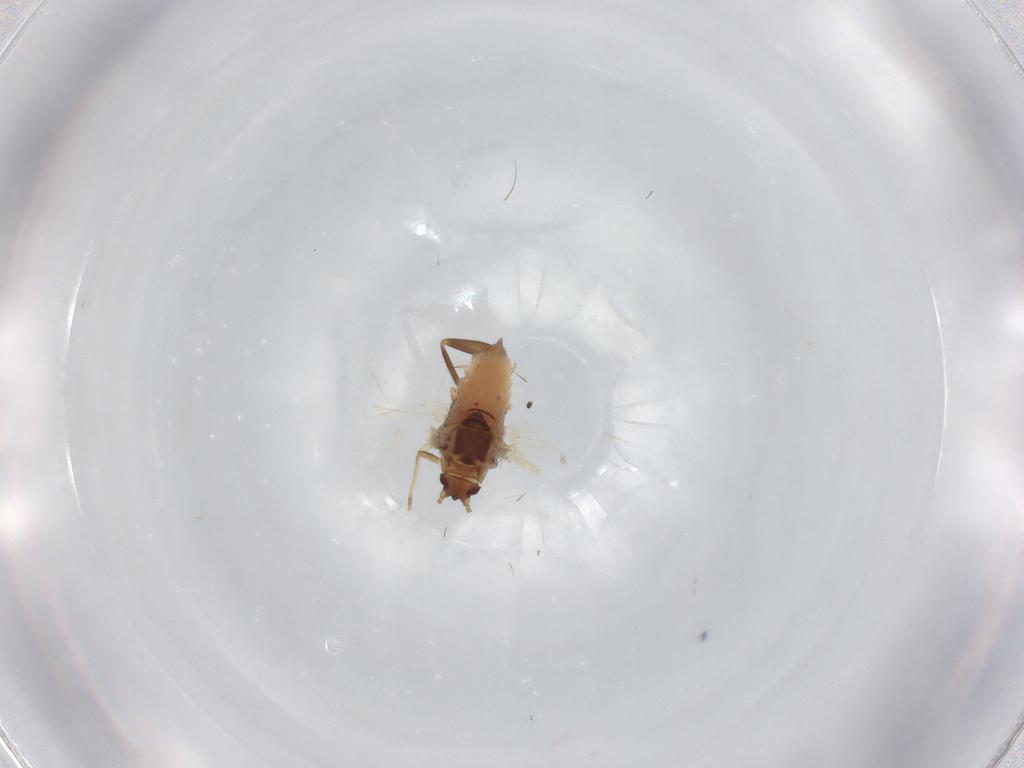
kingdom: Animalia
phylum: Arthropoda
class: Insecta
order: Hemiptera
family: Aphididae
